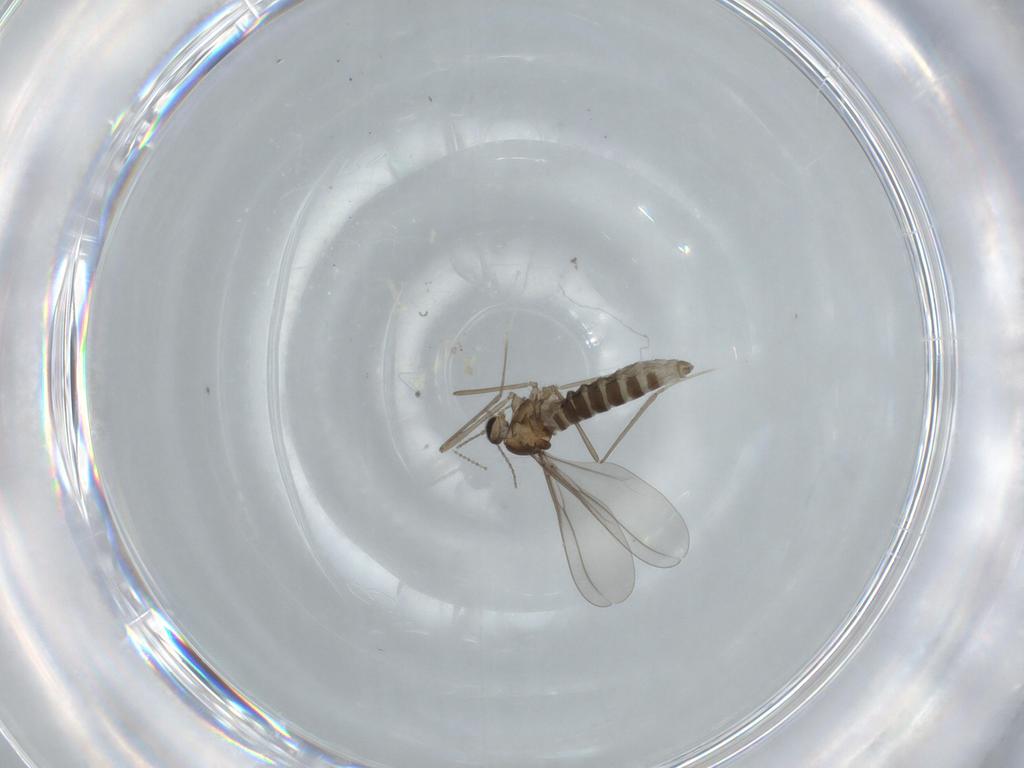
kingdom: Animalia
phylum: Arthropoda
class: Insecta
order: Diptera
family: Cecidomyiidae
